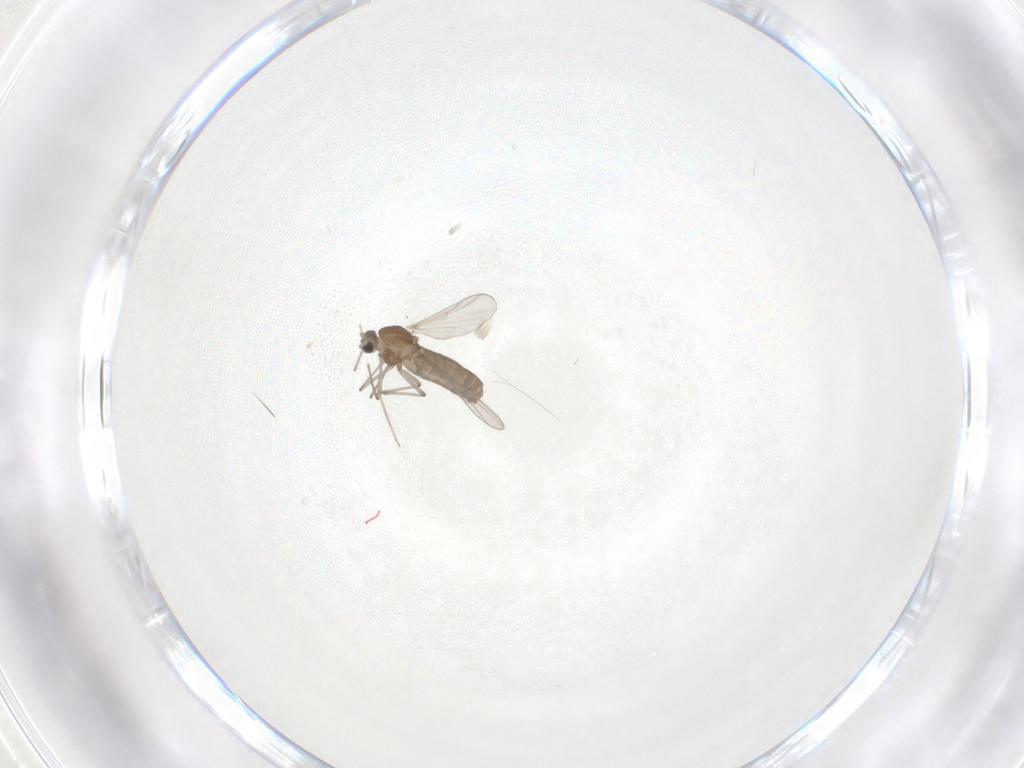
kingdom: Animalia
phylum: Arthropoda
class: Insecta
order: Diptera
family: Chironomidae
